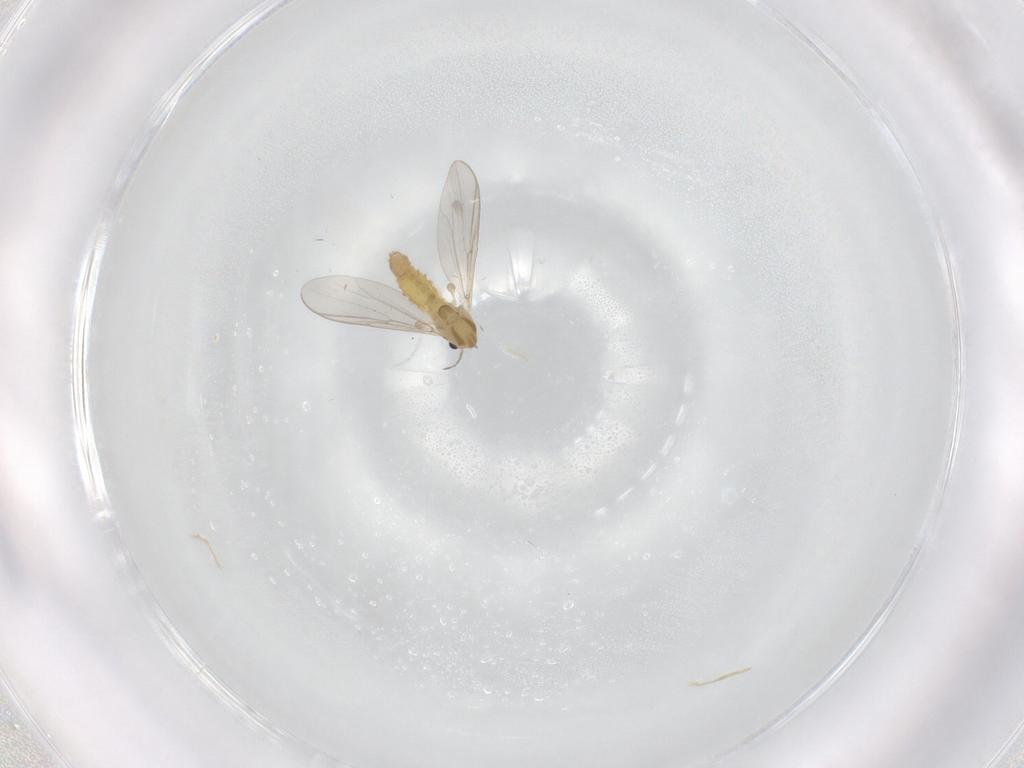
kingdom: Animalia
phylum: Arthropoda
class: Insecta
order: Diptera
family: Chironomidae
